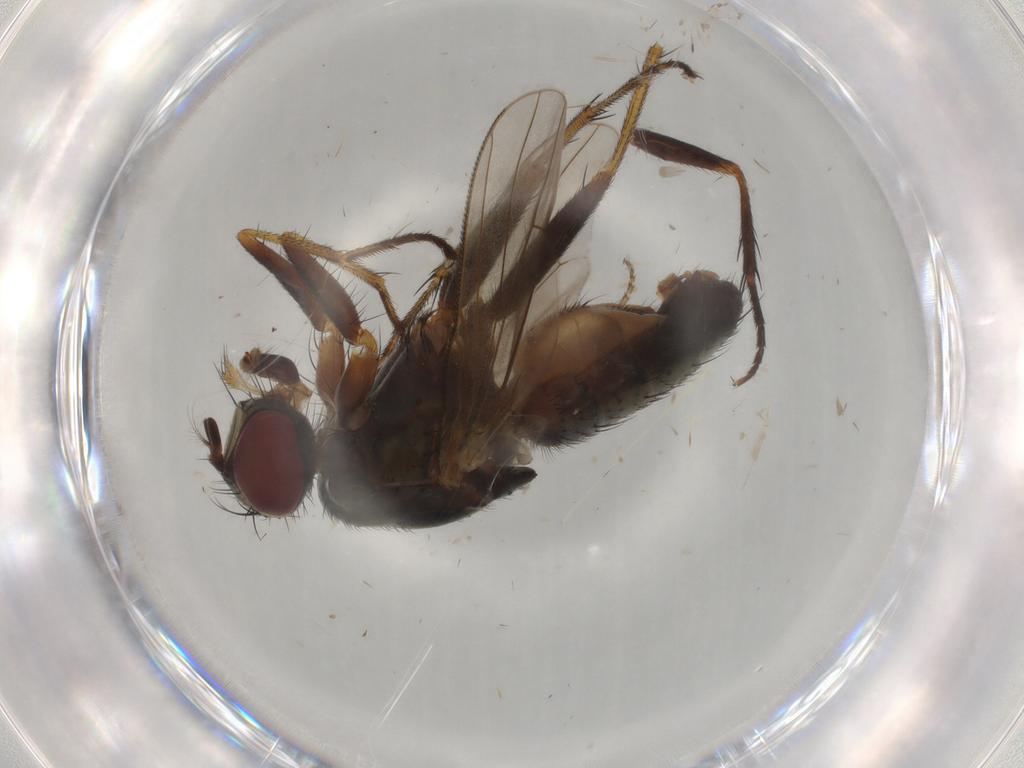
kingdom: Animalia
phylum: Arthropoda
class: Insecta
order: Diptera
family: Muscidae
